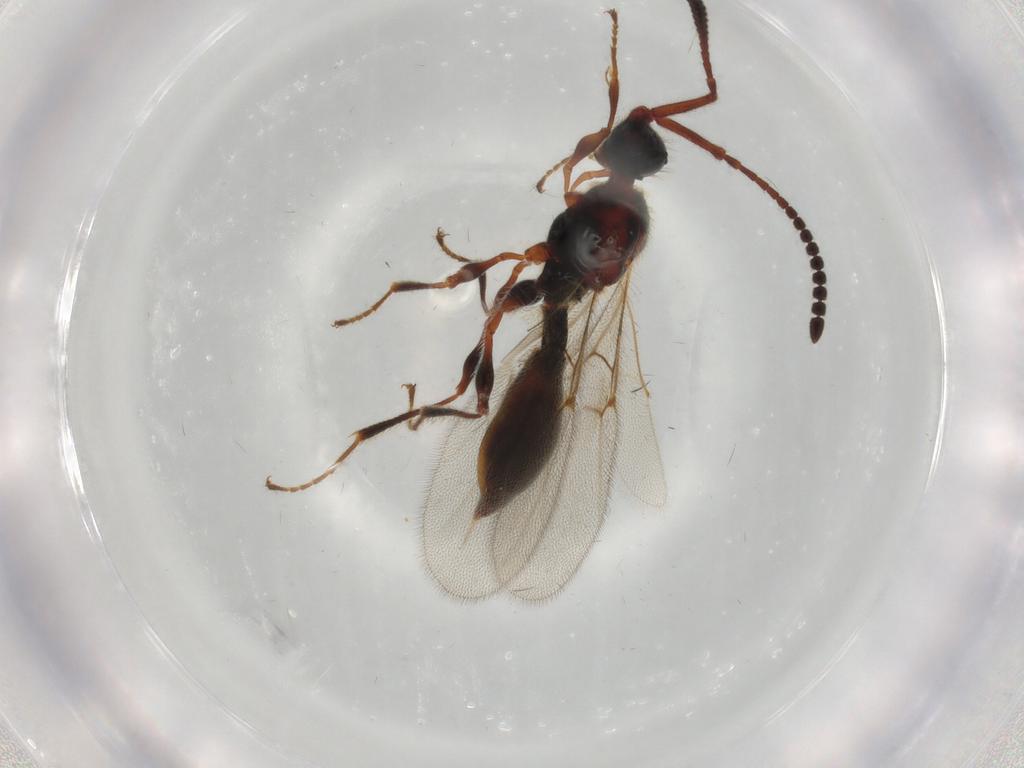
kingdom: Animalia
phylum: Arthropoda
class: Insecta
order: Hymenoptera
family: Diapriidae
